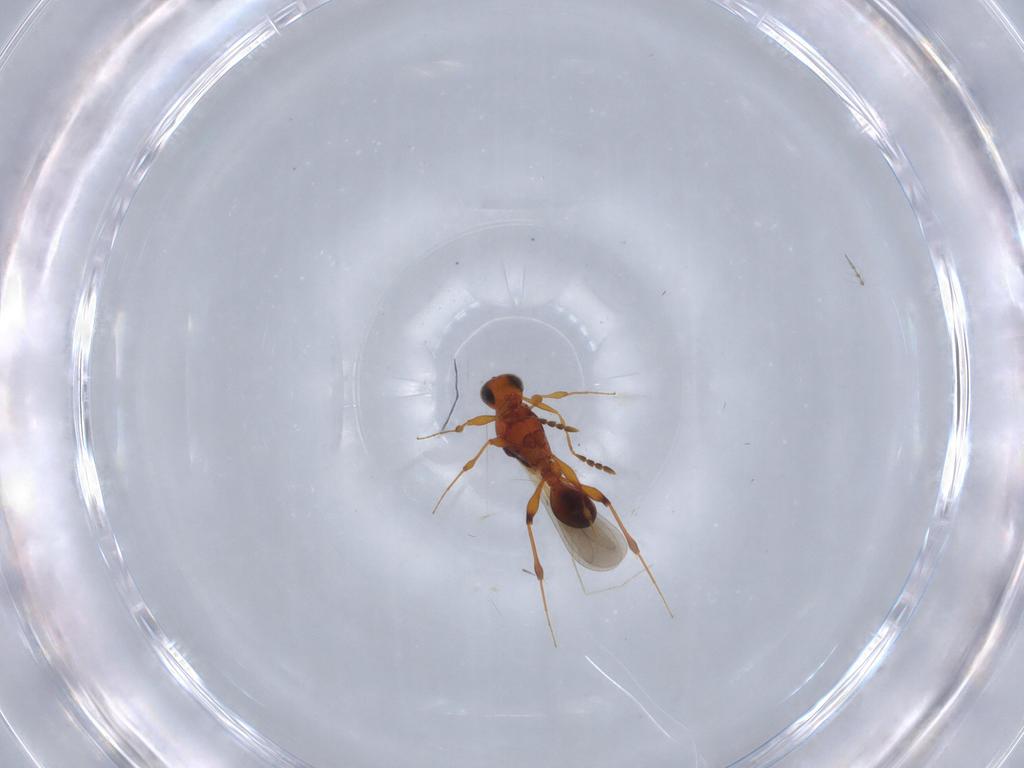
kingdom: Animalia
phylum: Arthropoda
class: Insecta
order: Hymenoptera
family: Platygastridae
